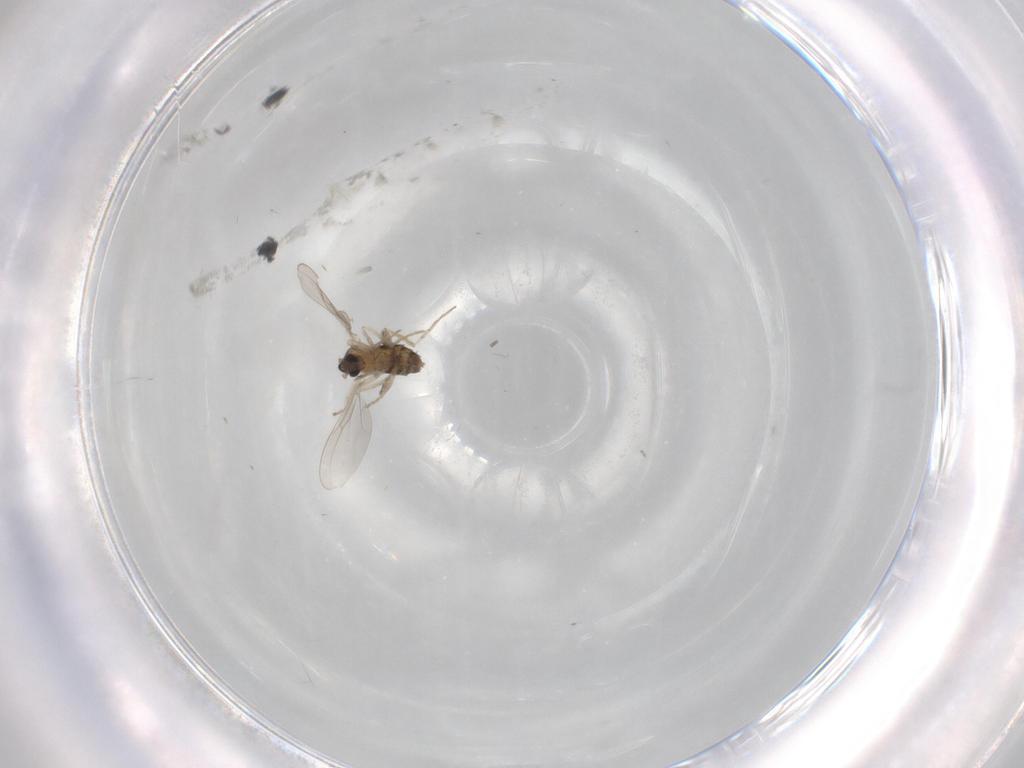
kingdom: Animalia
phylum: Arthropoda
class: Insecta
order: Diptera
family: Cecidomyiidae
